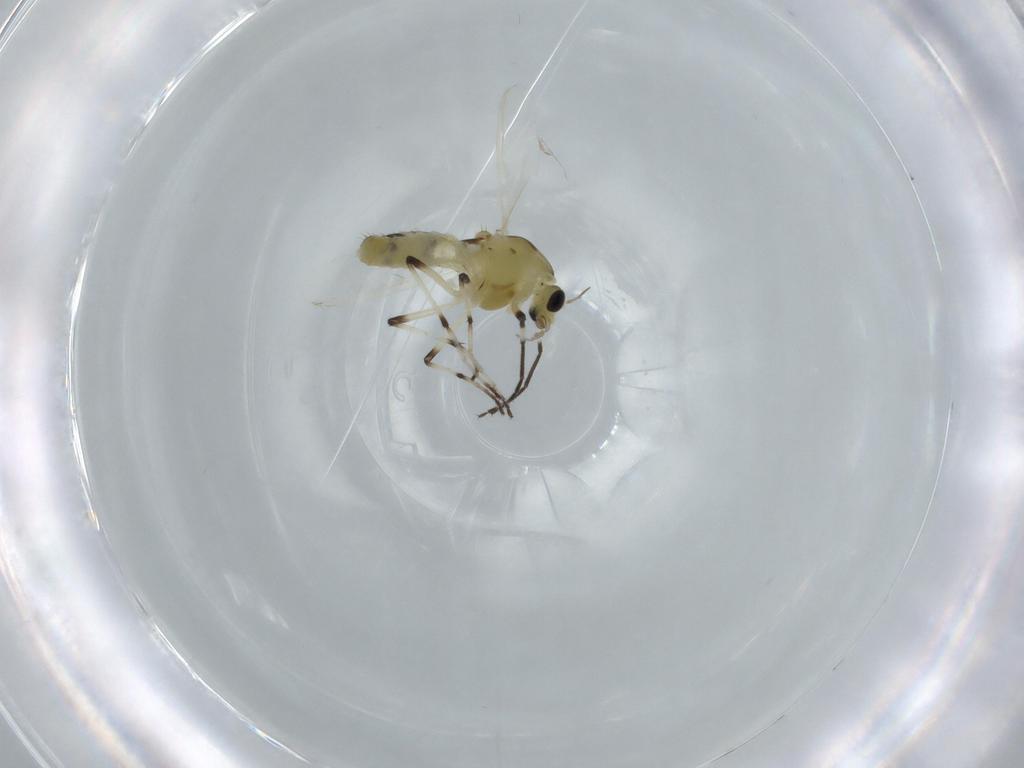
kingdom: Animalia
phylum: Arthropoda
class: Insecta
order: Diptera
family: Chironomidae
